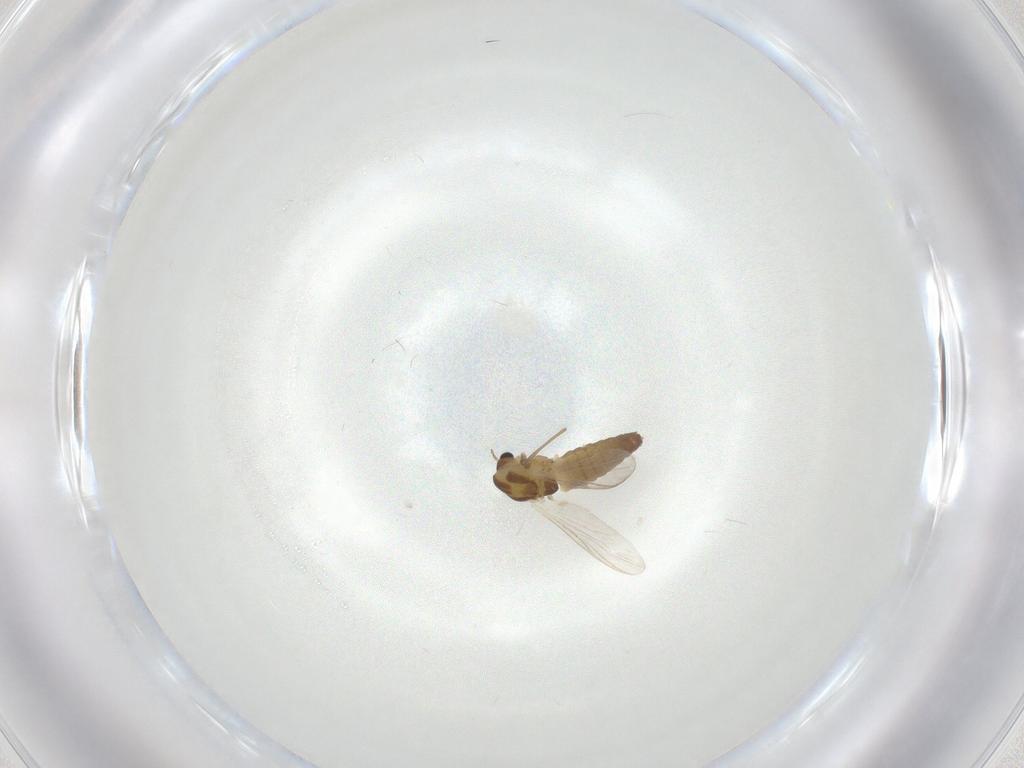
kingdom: Animalia
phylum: Arthropoda
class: Insecta
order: Diptera
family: Chironomidae
